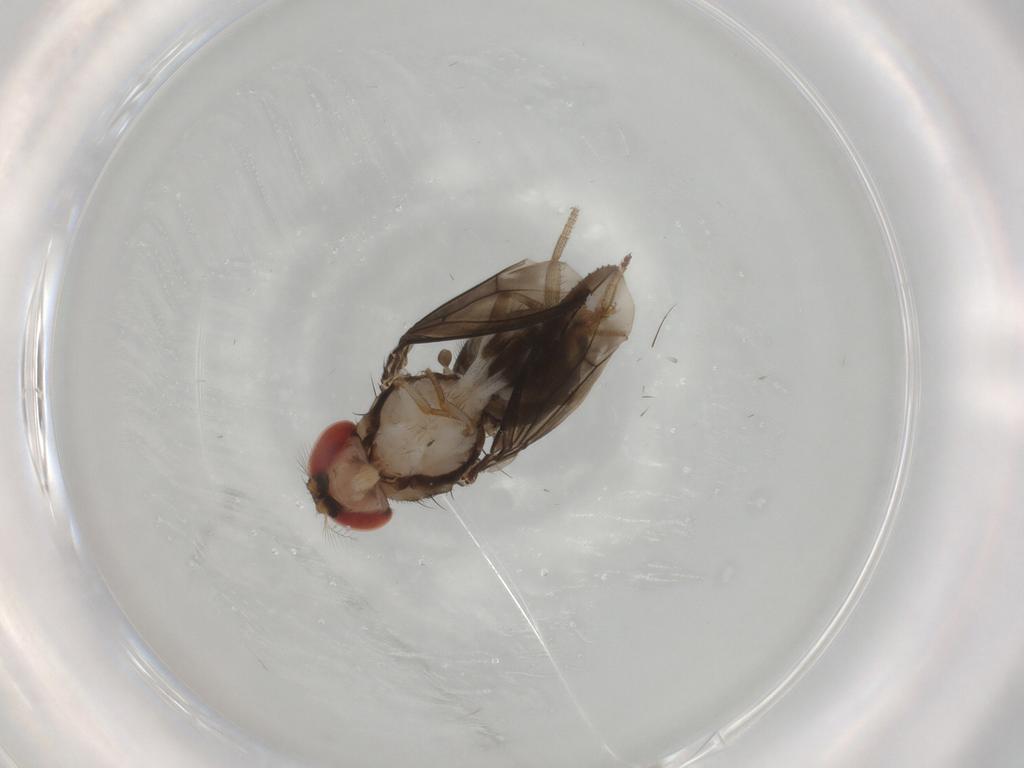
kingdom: Animalia
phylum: Arthropoda
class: Insecta
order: Diptera
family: Drosophilidae
